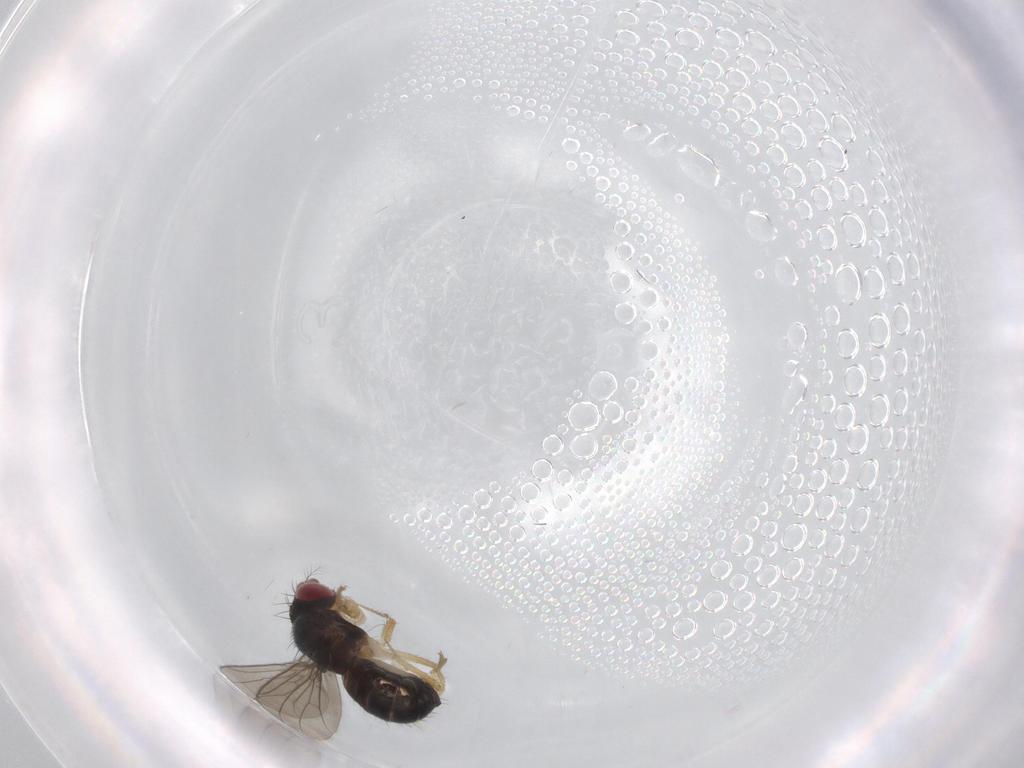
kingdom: Animalia
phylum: Arthropoda
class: Insecta
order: Diptera
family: Drosophilidae
